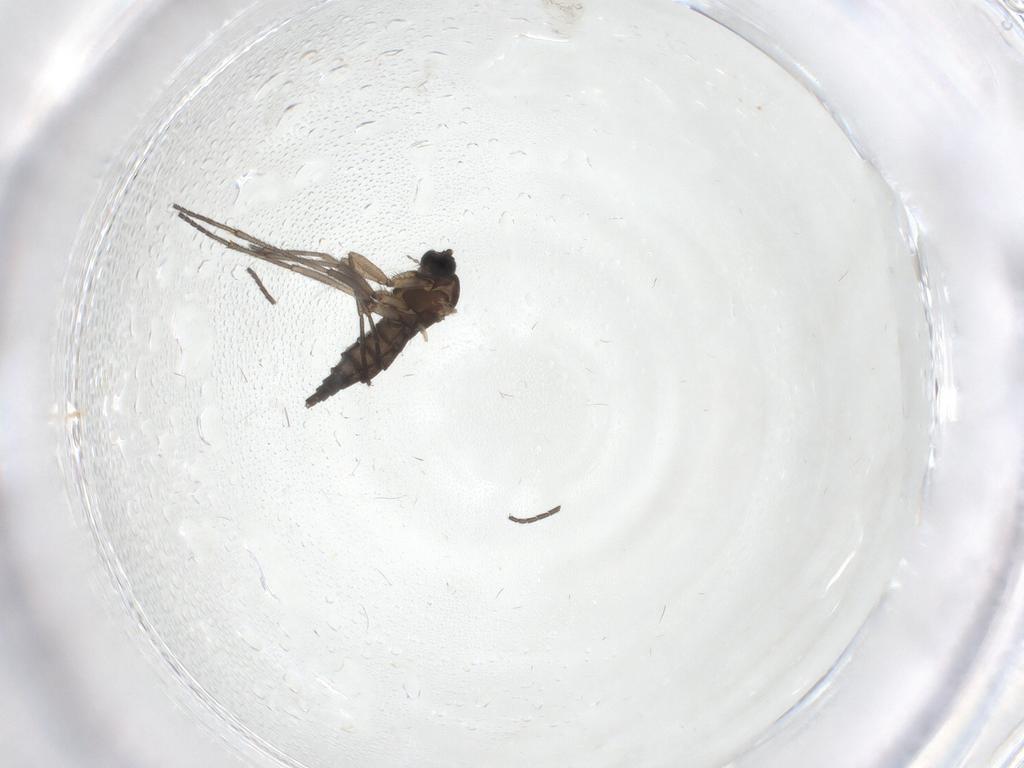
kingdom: Animalia
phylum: Arthropoda
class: Insecta
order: Diptera
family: Sciaridae
